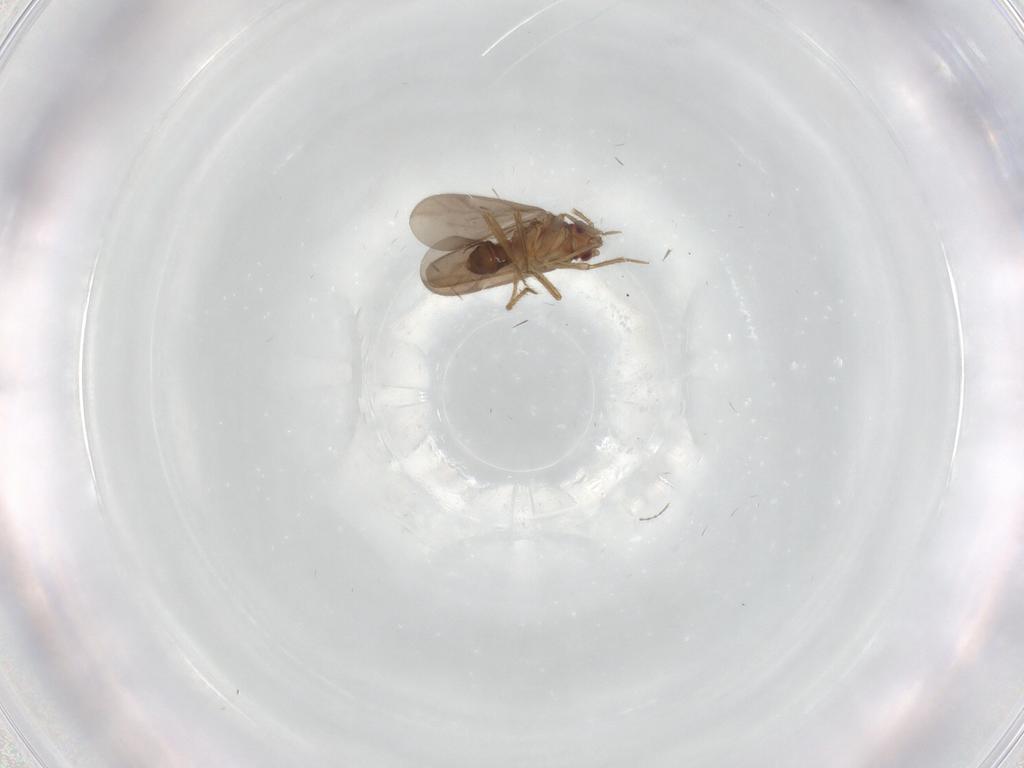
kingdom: Animalia
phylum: Arthropoda
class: Insecta
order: Hemiptera
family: Ceratocombidae
